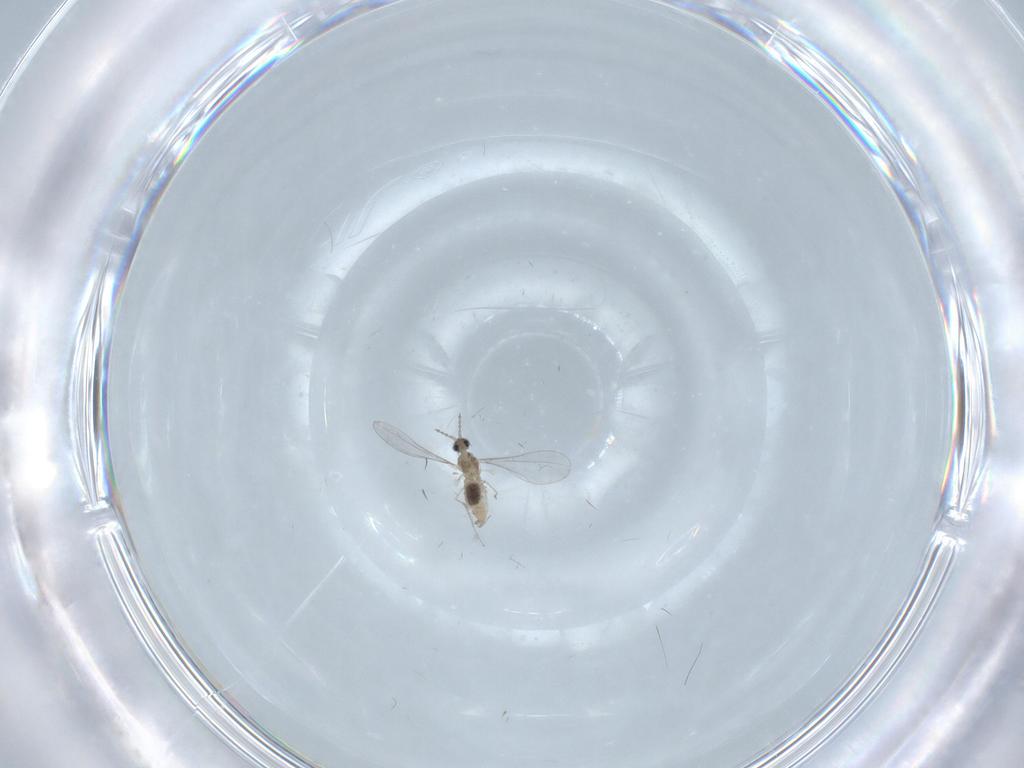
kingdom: Animalia
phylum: Arthropoda
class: Insecta
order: Diptera
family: Cecidomyiidae
